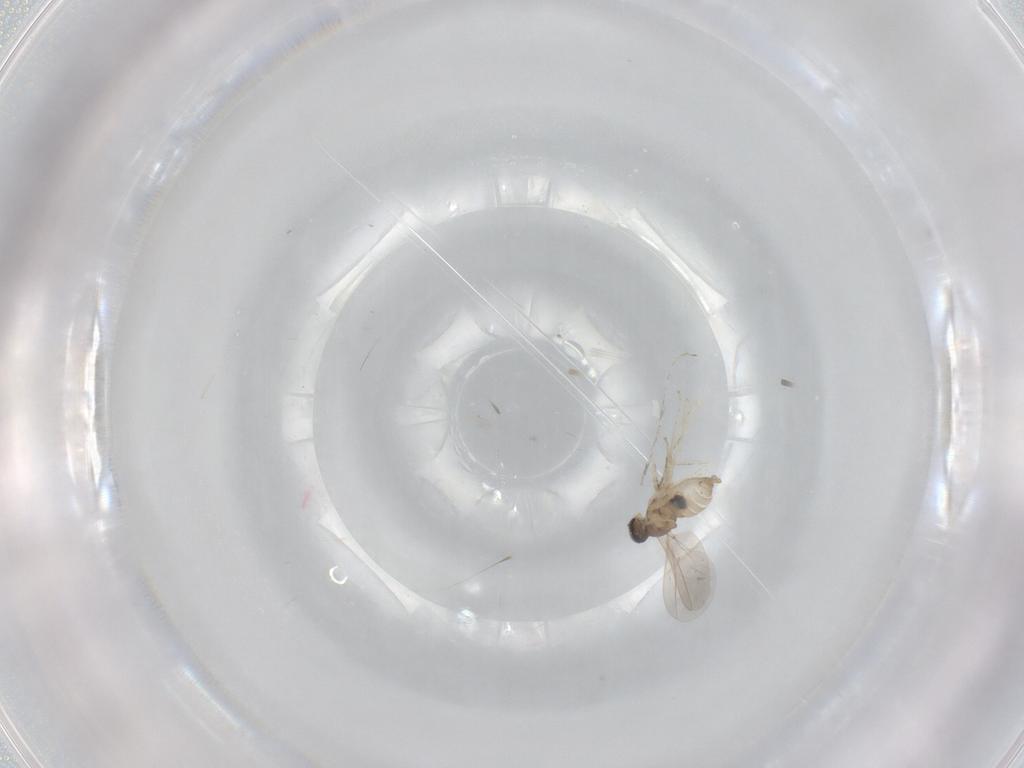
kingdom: Animalia
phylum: Arthropoda
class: Insecta
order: Diptera
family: Cecidomyiidae
